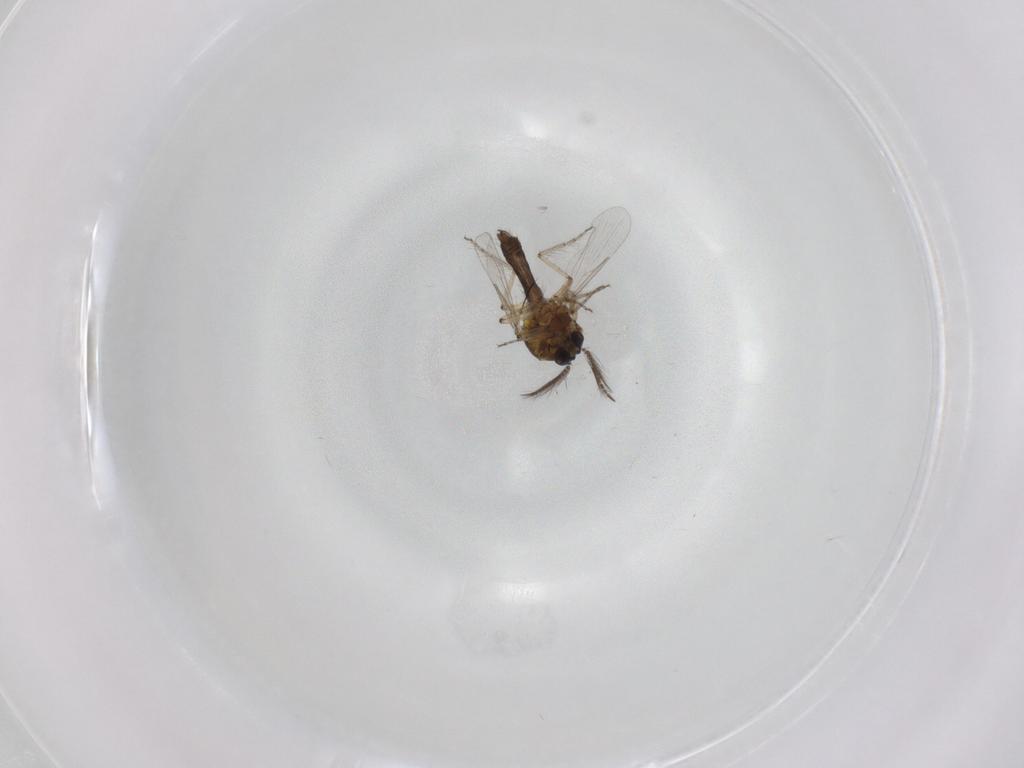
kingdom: Animalia
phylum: Arthropoda
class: Insecta
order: Diptera
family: Ceratopogonidae
